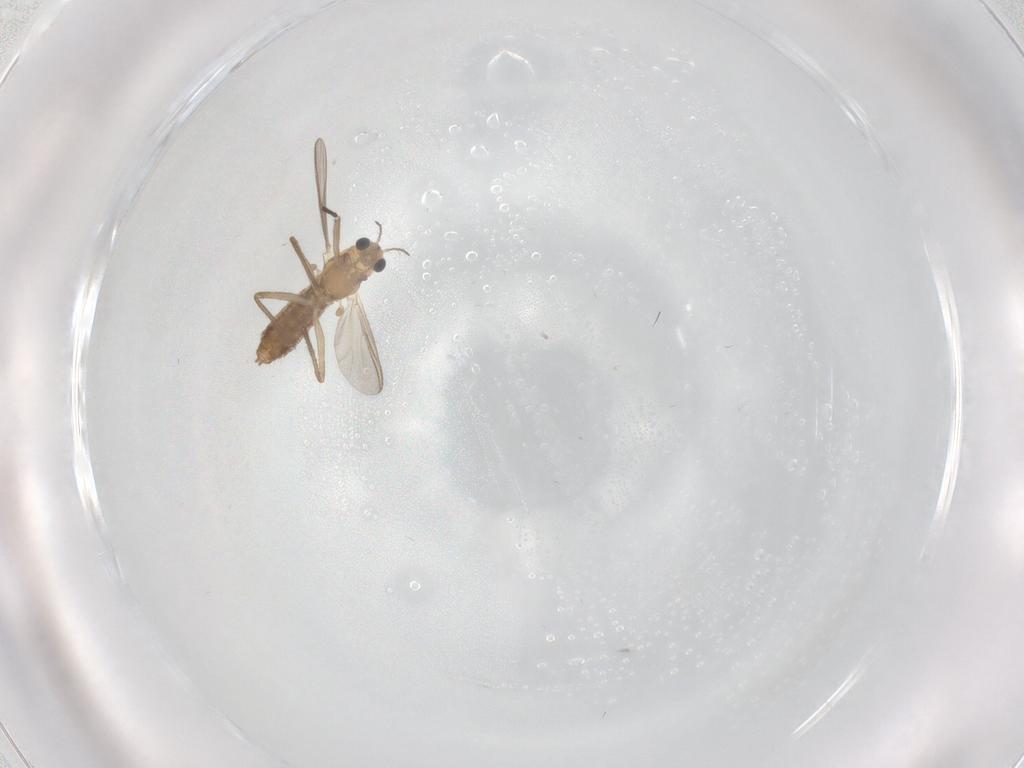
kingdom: Animalia
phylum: Arthropoda
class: Insecta
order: Diptera
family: Chironomidae
